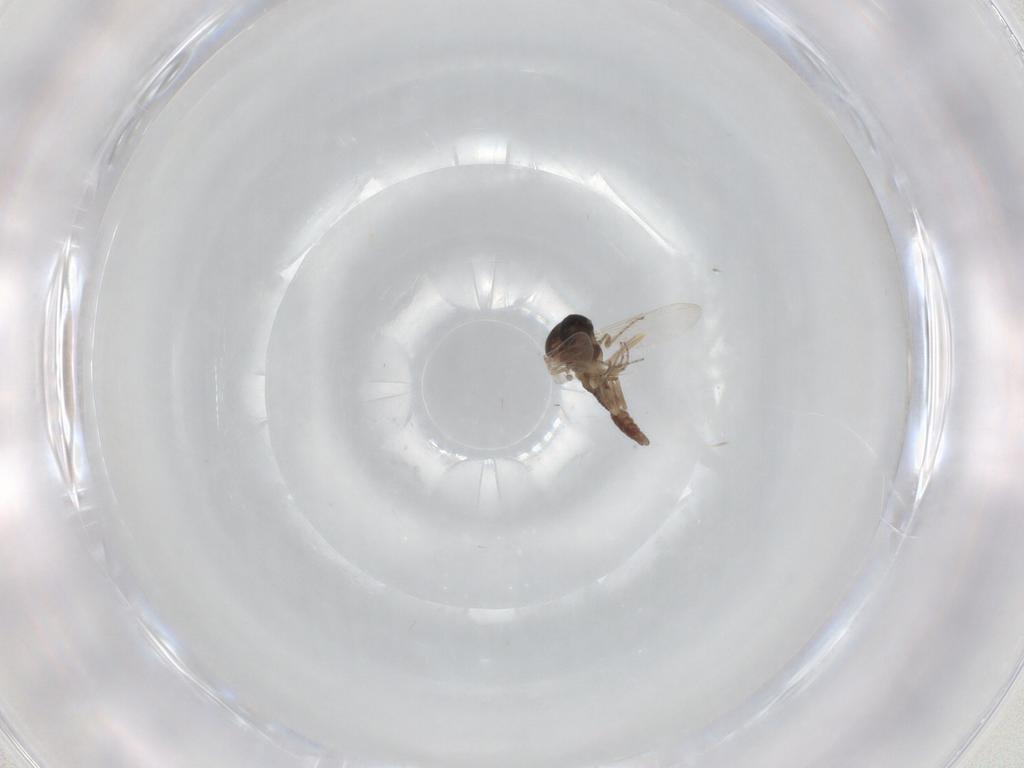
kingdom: Animalia
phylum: Arthropoda
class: Insecta
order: Diptera
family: Ceratopogonidae
